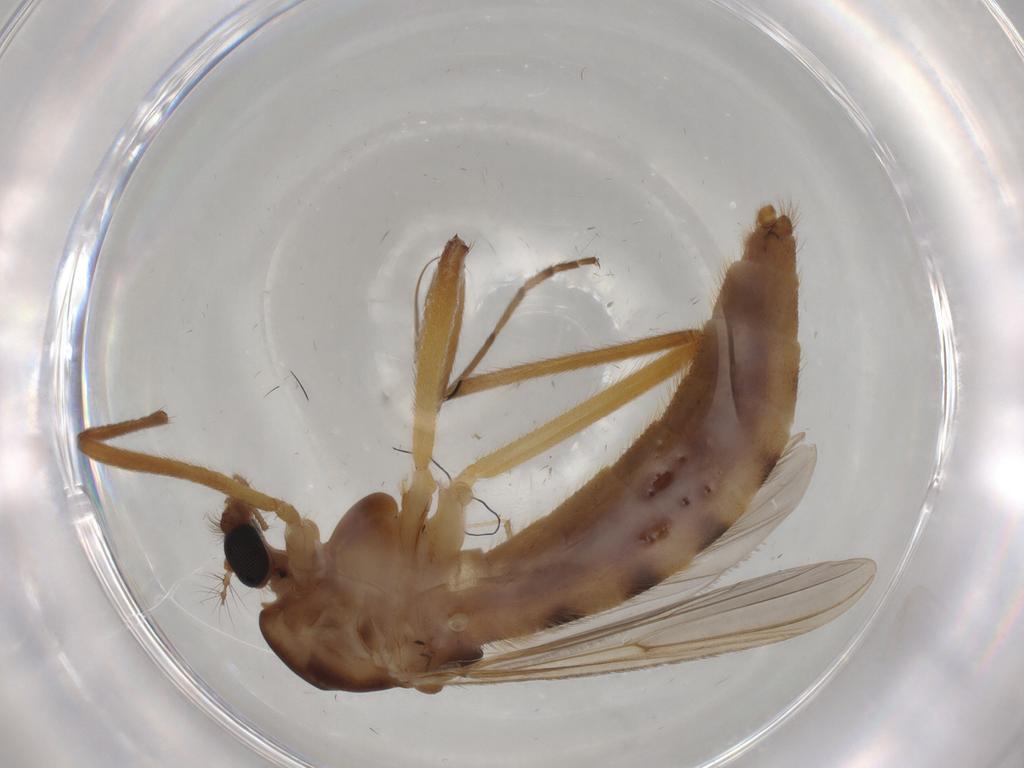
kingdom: Animalia
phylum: Arthropoda
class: Insecta
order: Diptera
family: Chironomidae
